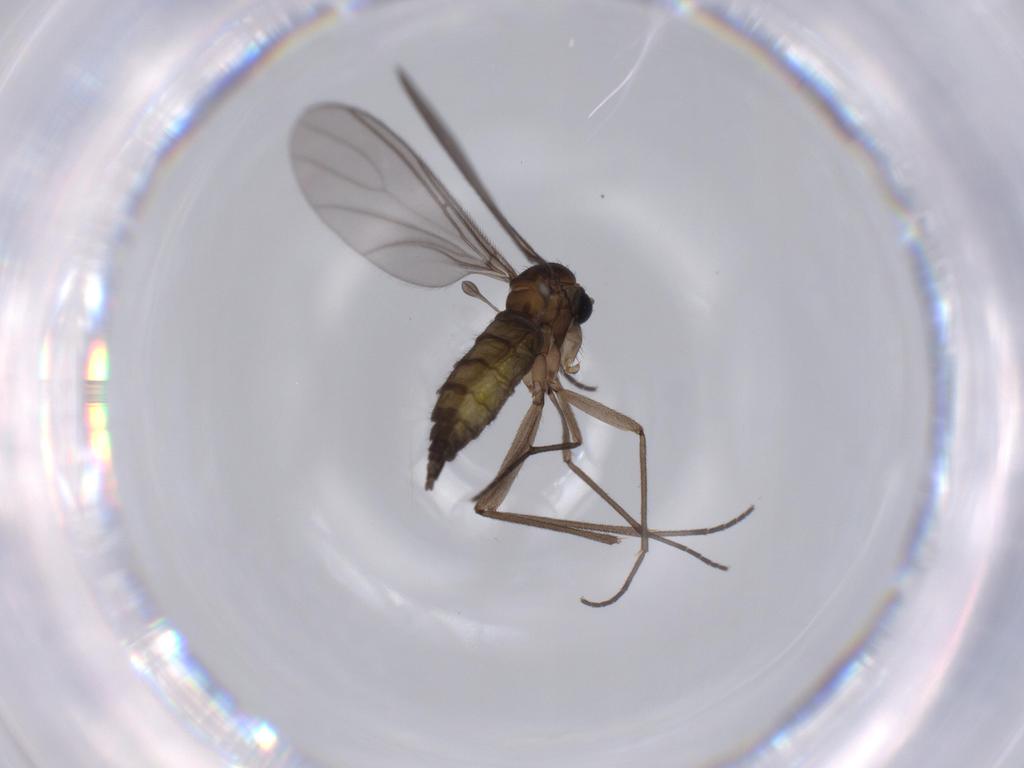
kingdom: Animalia
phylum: Arthropoda
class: Insecta
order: Diptera
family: Sciaridae
